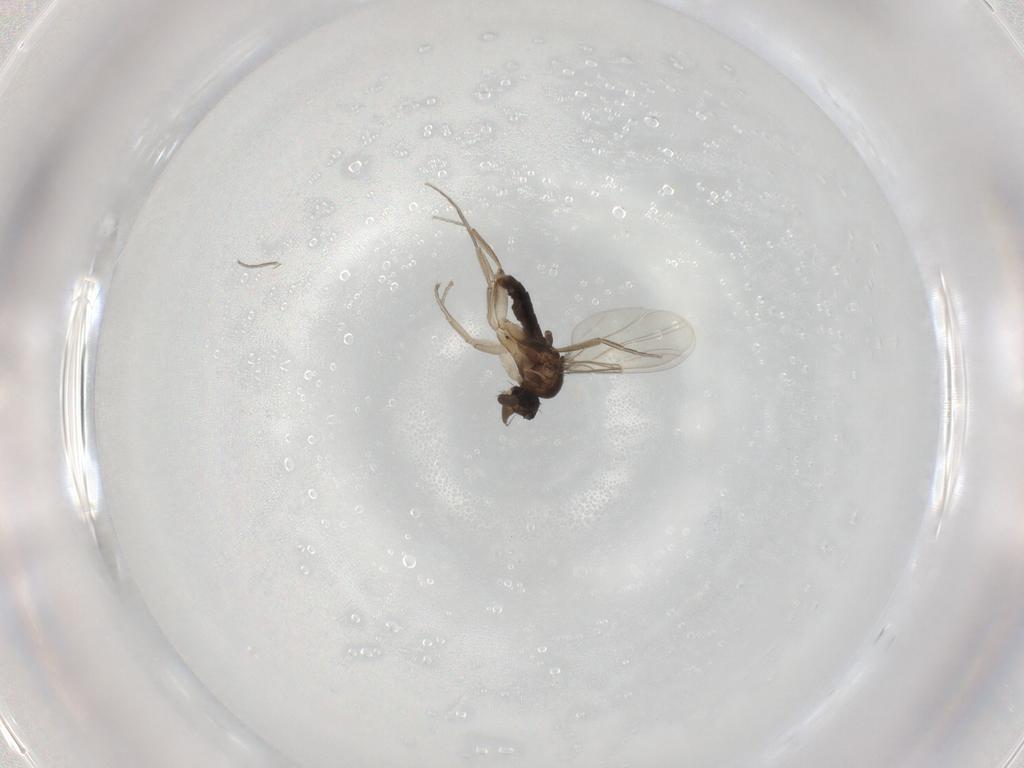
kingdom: Animalia
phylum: Arthropoda
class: Insecta
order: Diptera
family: Phoridae
